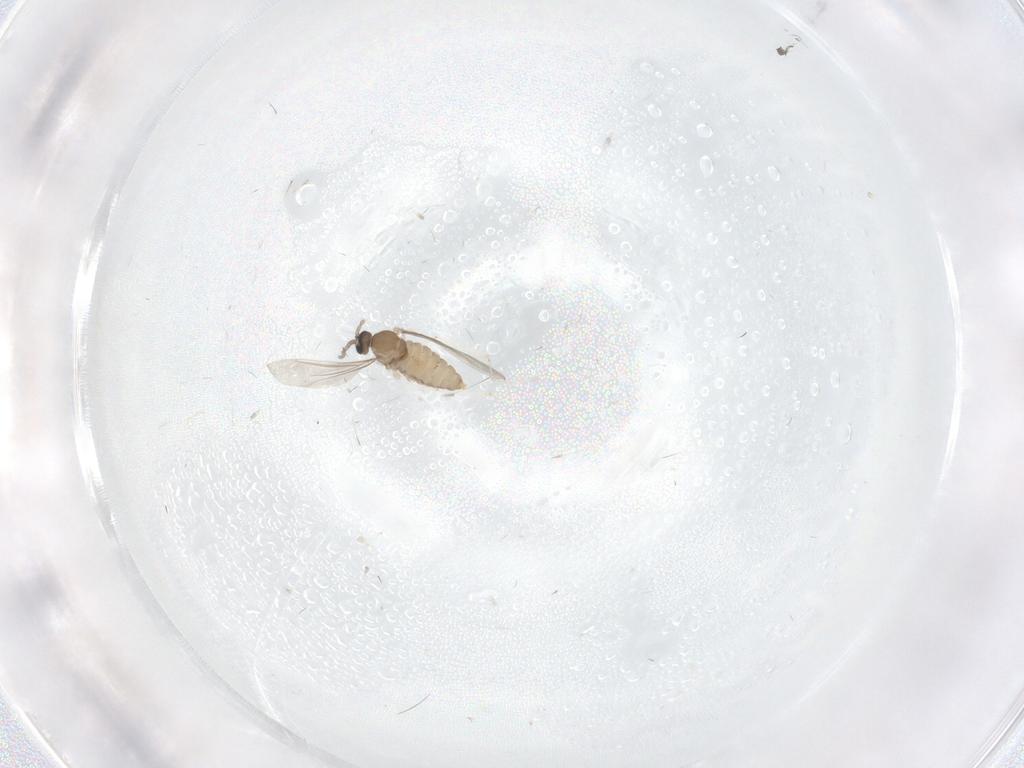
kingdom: Animalia
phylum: Arthropoda
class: Insecta
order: Diptera
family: Cecidomyiidae
